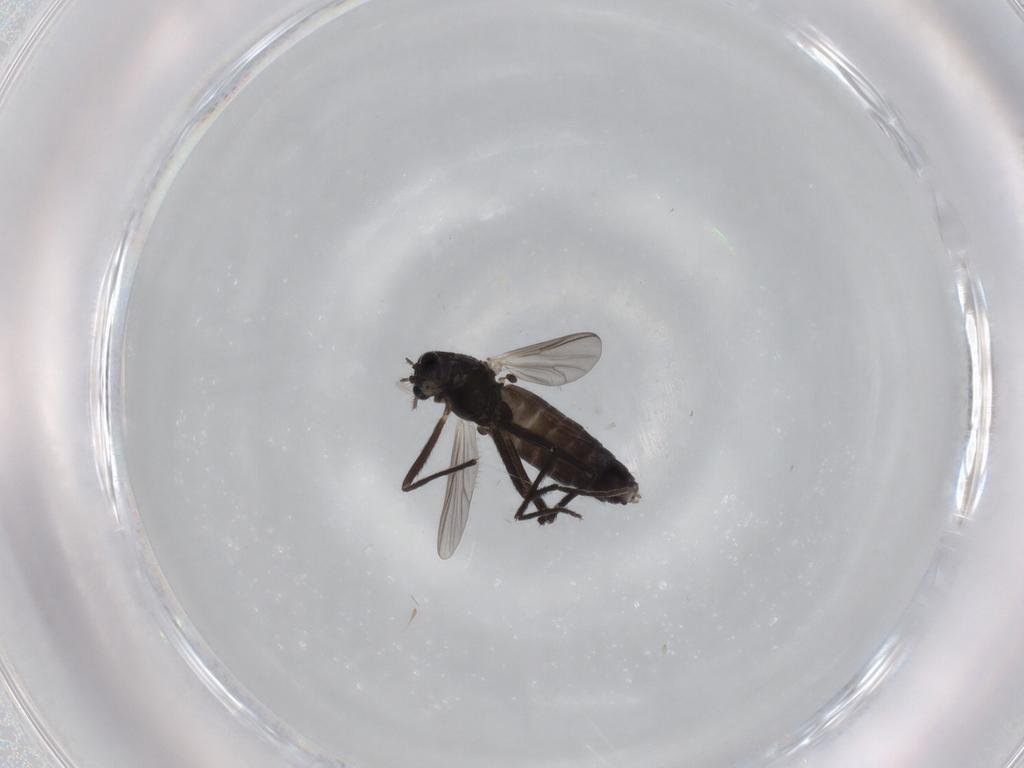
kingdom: Animalia
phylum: Arthropoda
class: Insecta
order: Diptera
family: Chironomidae
